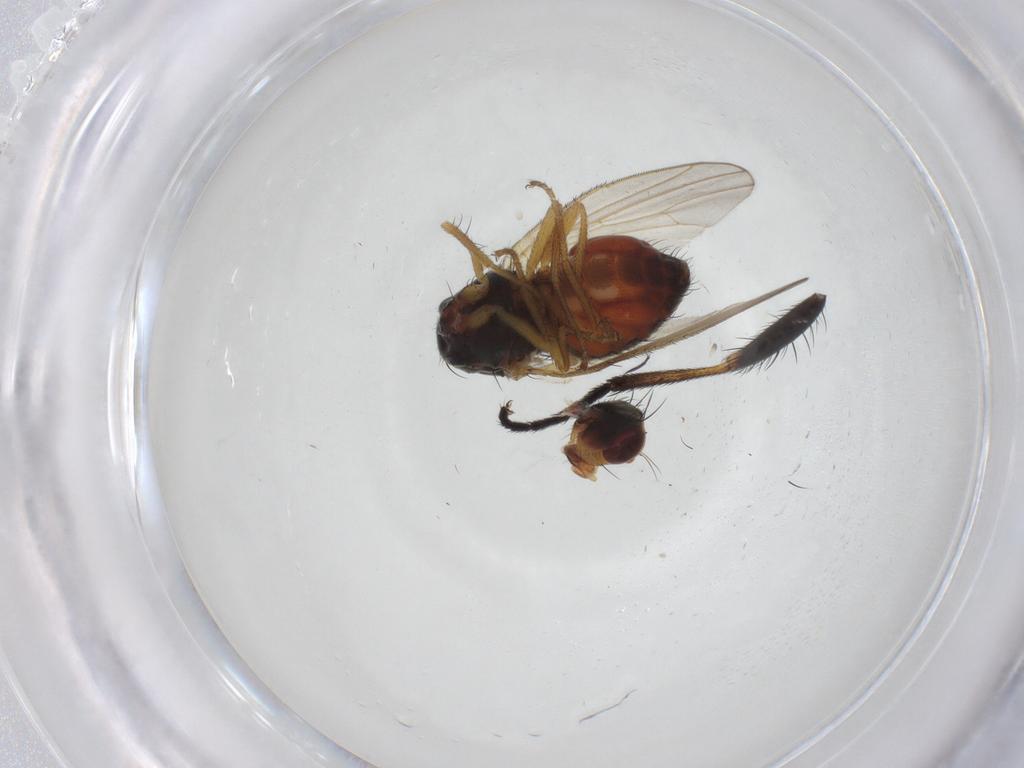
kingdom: Animalia
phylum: Arthropoda
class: Insecta
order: Diptera
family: Heleomyzidae
